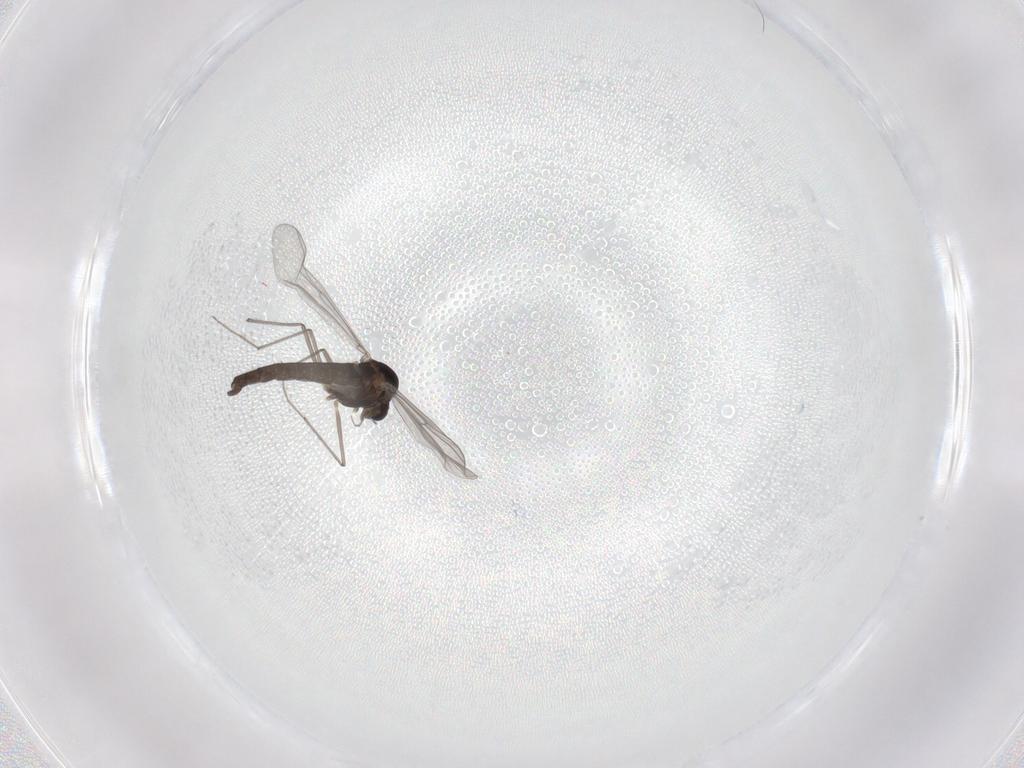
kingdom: Animalia
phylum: Arthropoda
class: Insecta
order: Diptera
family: Chironomidae
